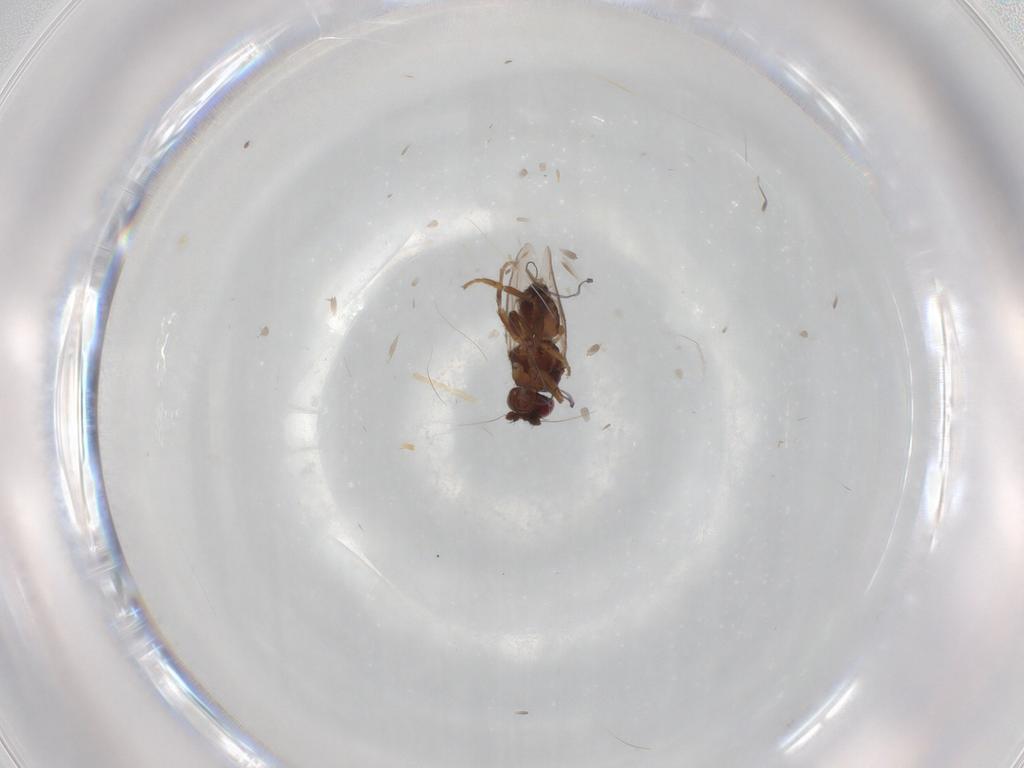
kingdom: Animalia
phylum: Arthropoda
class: Insecta
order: Diptera
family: Sphaeroceridae
